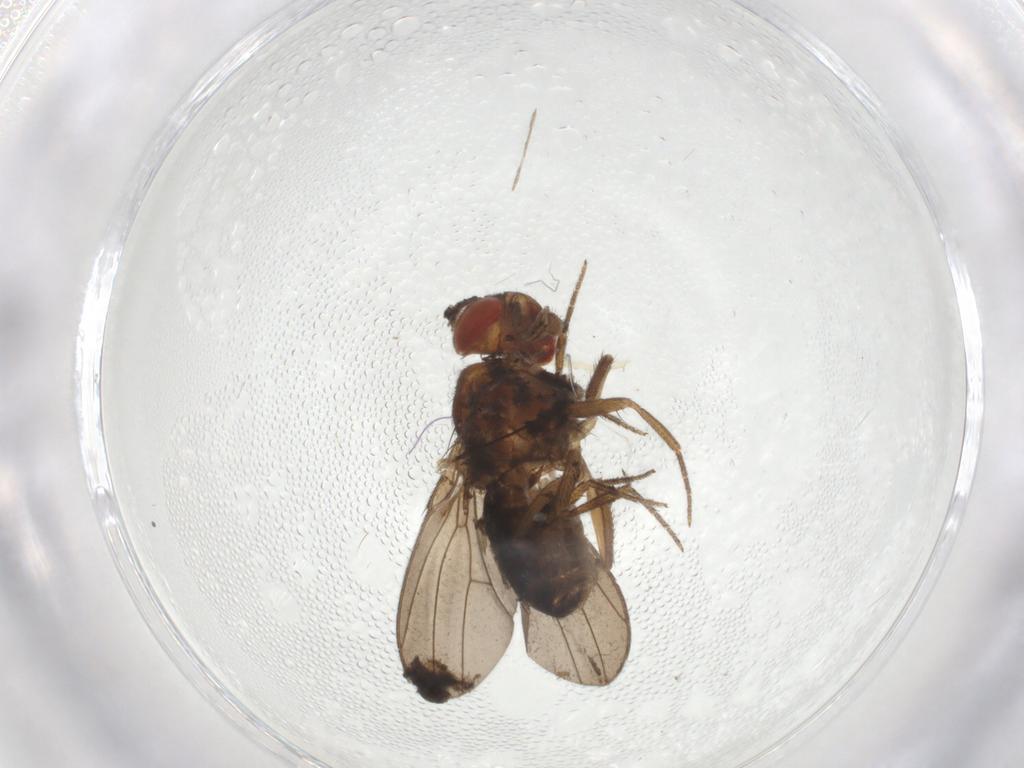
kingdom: Animalia
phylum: Arthropoda
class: Insecta
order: Diptera
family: Drosophilidae
